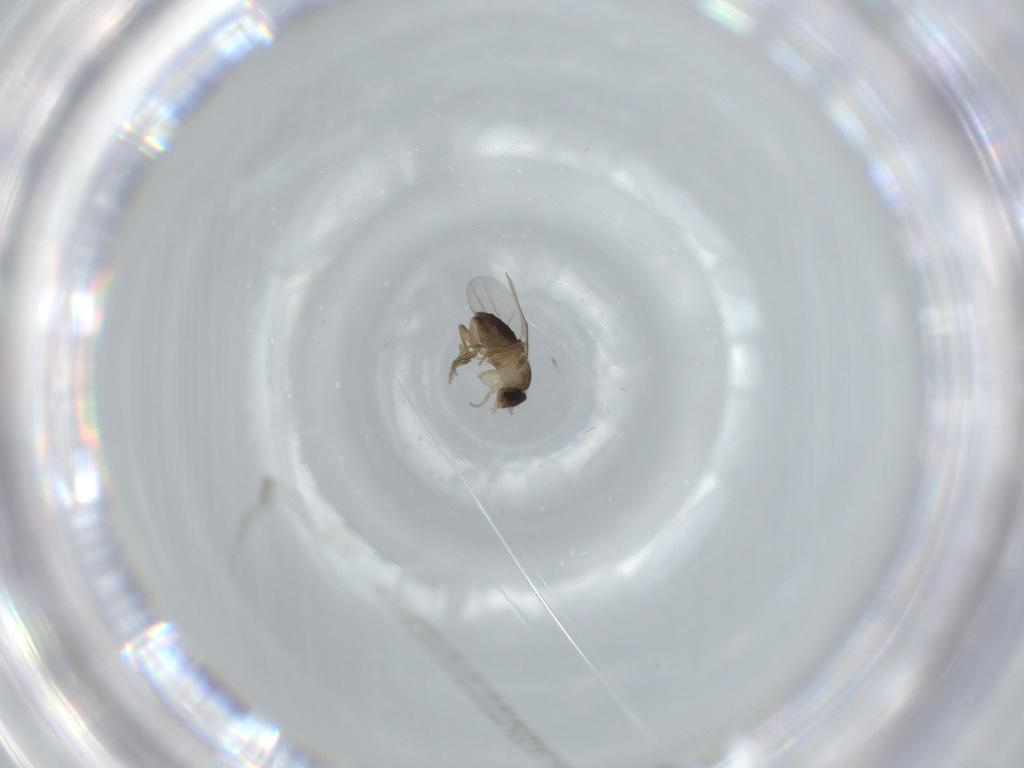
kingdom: Animalia
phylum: Arthropoda
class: Insecta
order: Diptera
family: Phoridae
